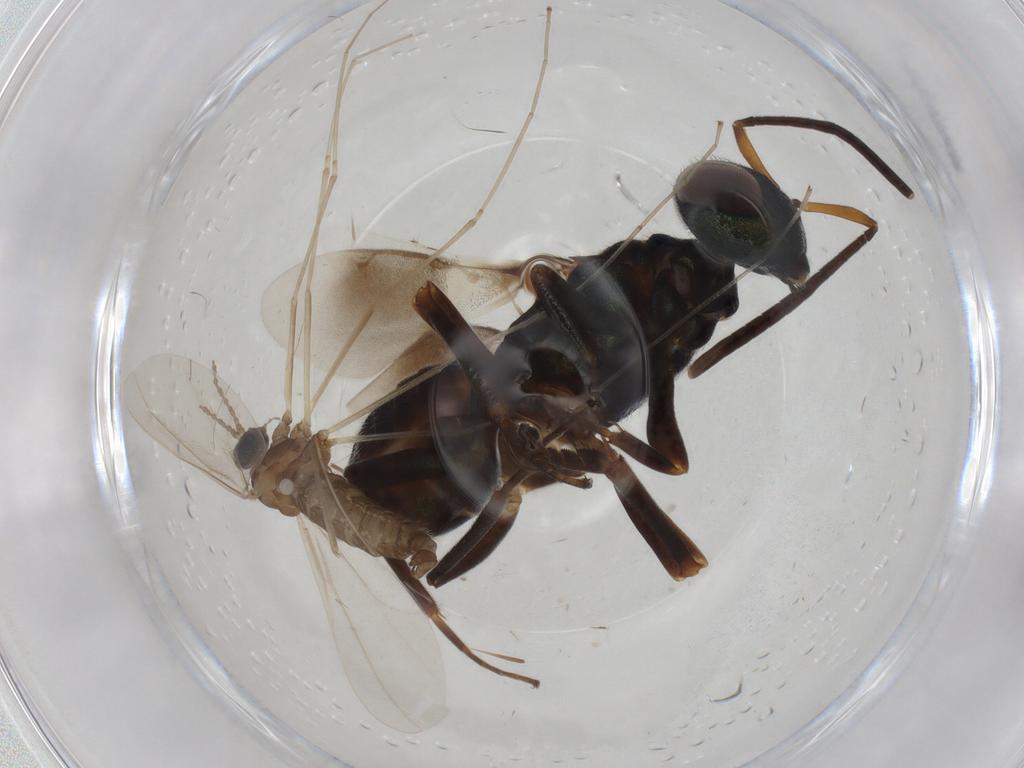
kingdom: Animalia
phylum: Arthropoda
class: Insecta
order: Diptera
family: Cecidomyiidae
